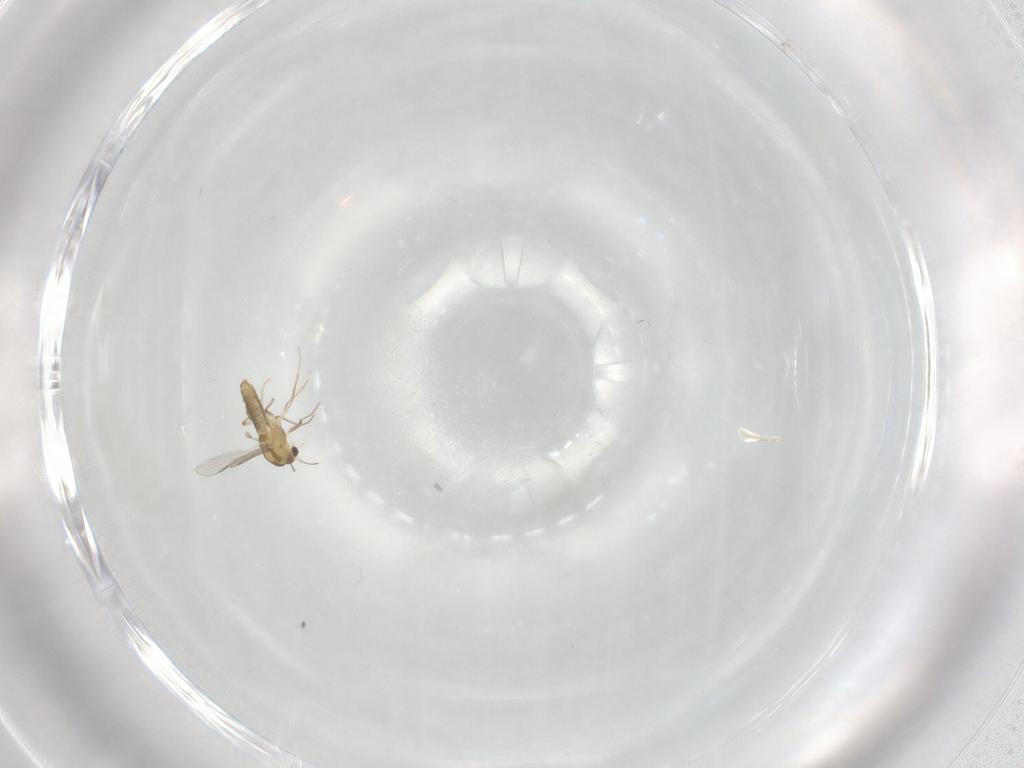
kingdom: Animalia
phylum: Arthropoda
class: Insecta
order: Diptera
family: Chironomidae
